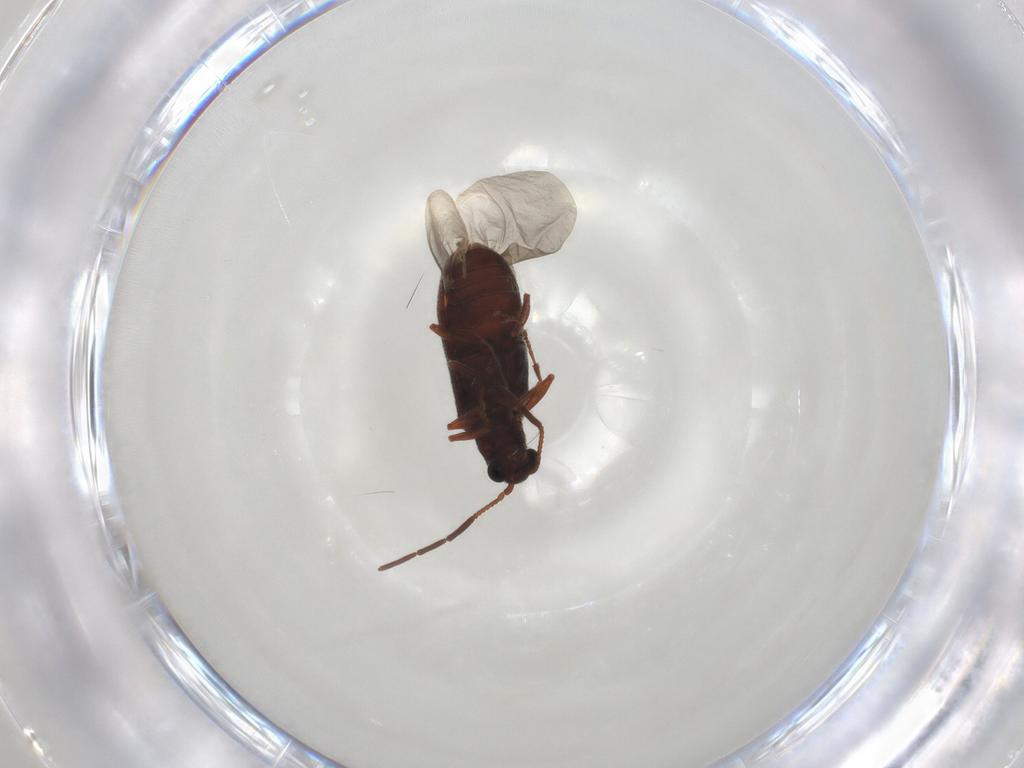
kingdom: Animalia
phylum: Arthropoda
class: Insecta
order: Coleoptera
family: Ptinidae
